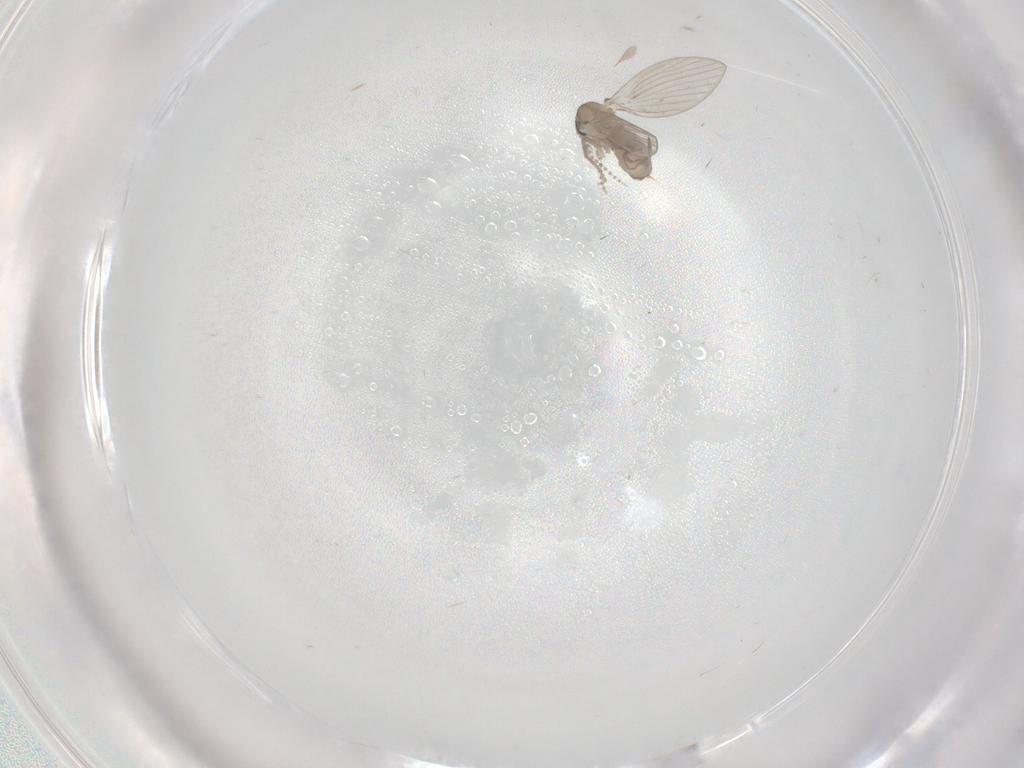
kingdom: Animalia
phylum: Arthropoda
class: Insecta
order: Diptera
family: Psychodidae
